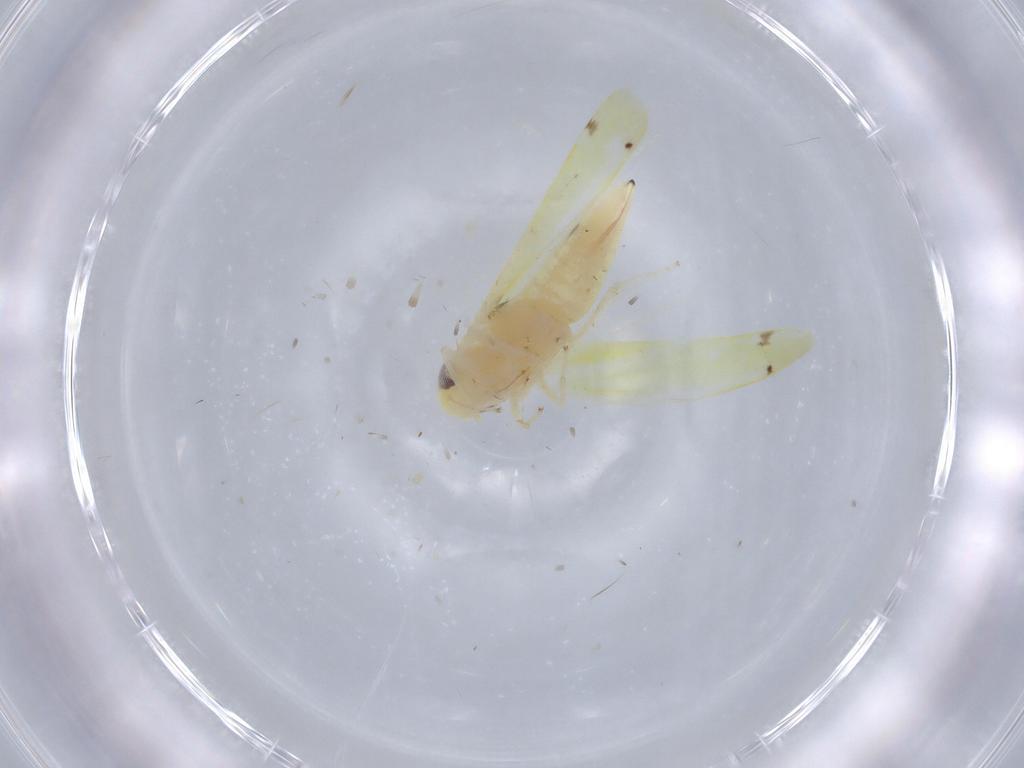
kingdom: Animalia
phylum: Arthropoda
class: Insecta
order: Hemiptera
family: Cicadellidae
